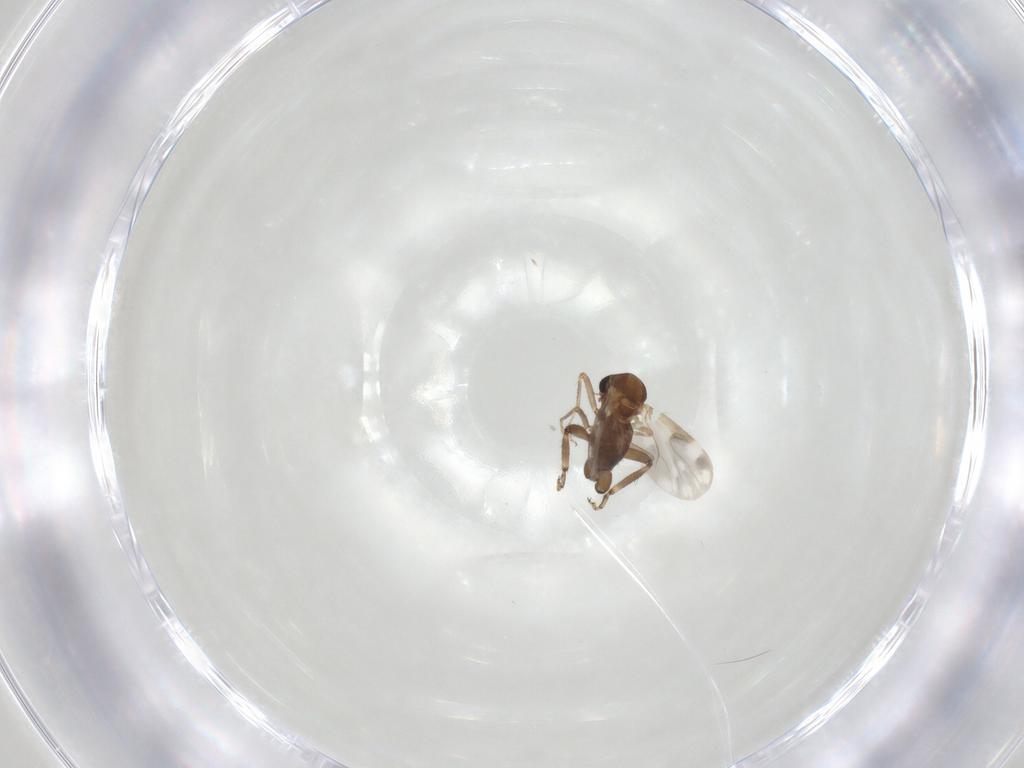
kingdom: Animalia
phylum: Arthropoda
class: Insecta
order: Diptera
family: Ceratopogonidae
